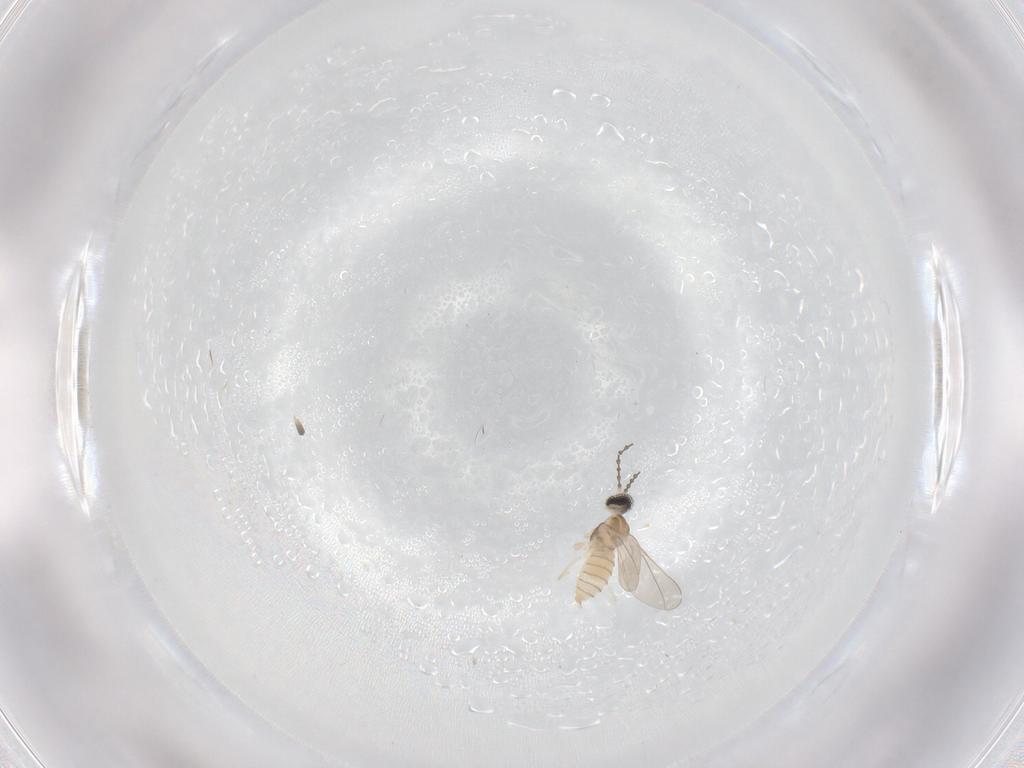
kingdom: Animalia
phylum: Arthropoda
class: Insecta
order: Diptera
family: Cecidomyiidae
